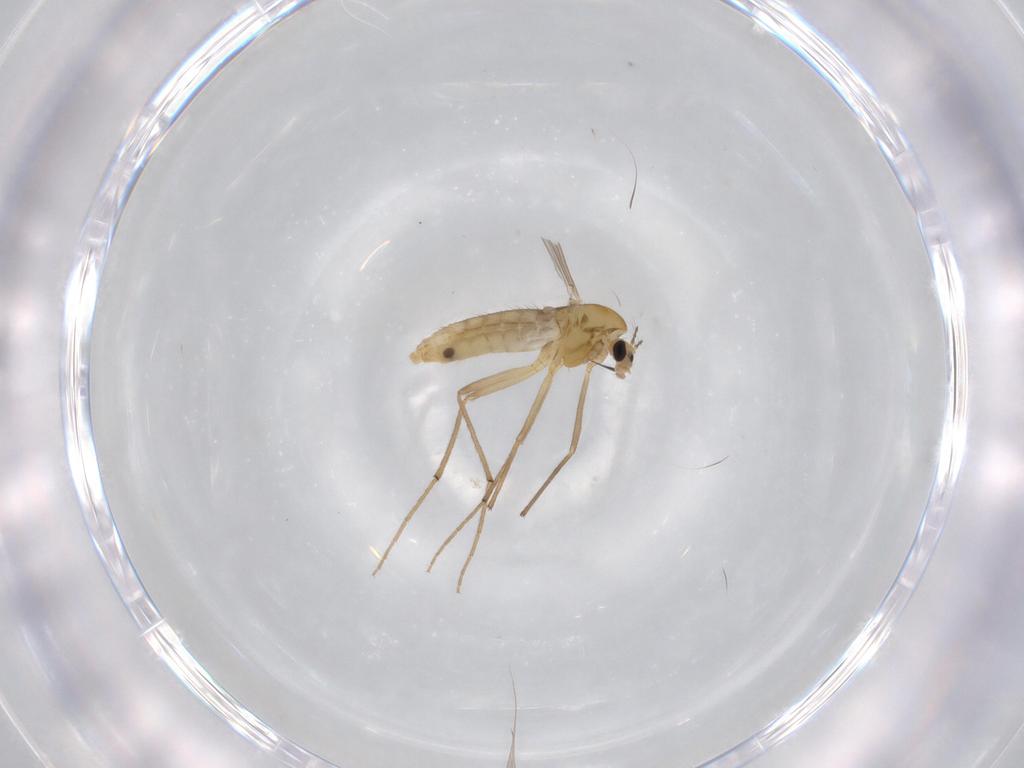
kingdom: Animalia
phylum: Arthropoda
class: Insecta
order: Diptera
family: Chironomidae
